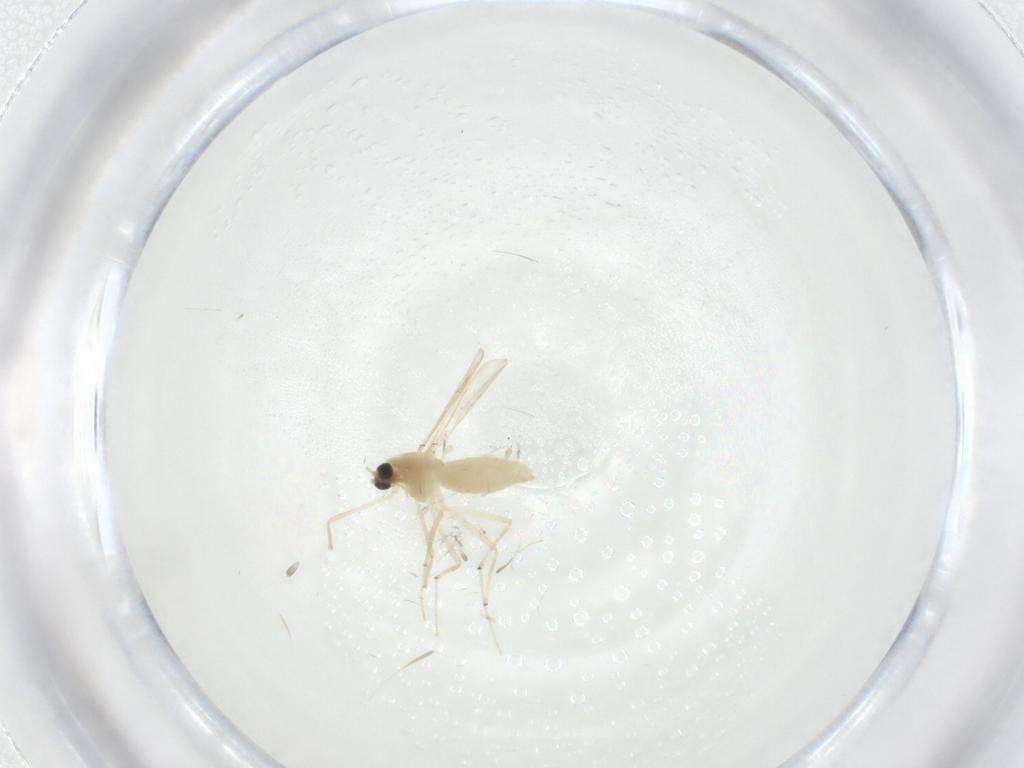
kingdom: Animalia
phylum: Arthropoda
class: Insecta
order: Diptera
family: Chironomidae
